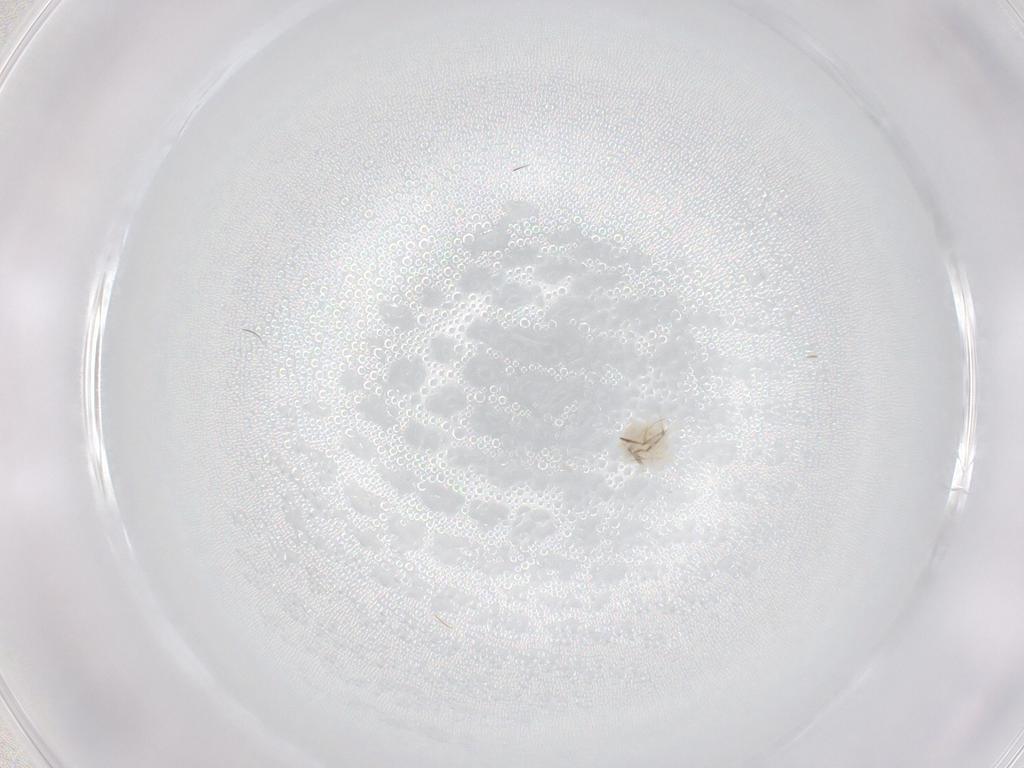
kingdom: Animalia
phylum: Arthropoda
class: Arachnida
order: Trombidiformes
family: Anystidae
